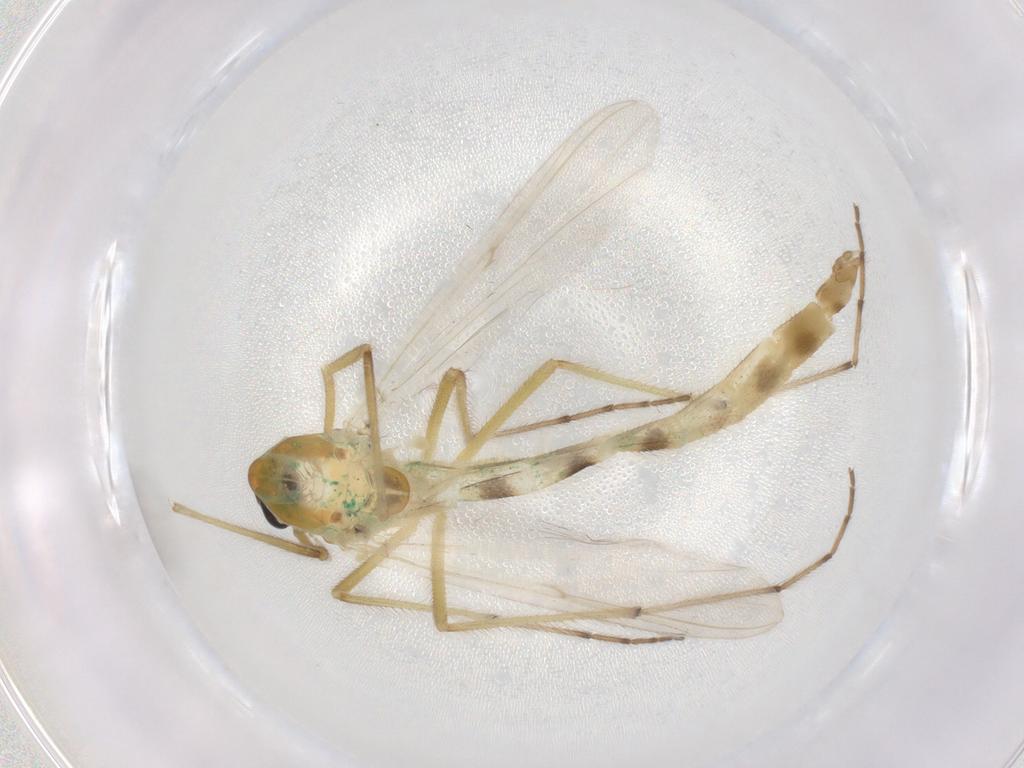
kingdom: Animalia
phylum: Arthropoda
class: Insecta
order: Diptera
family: Chironomidae
